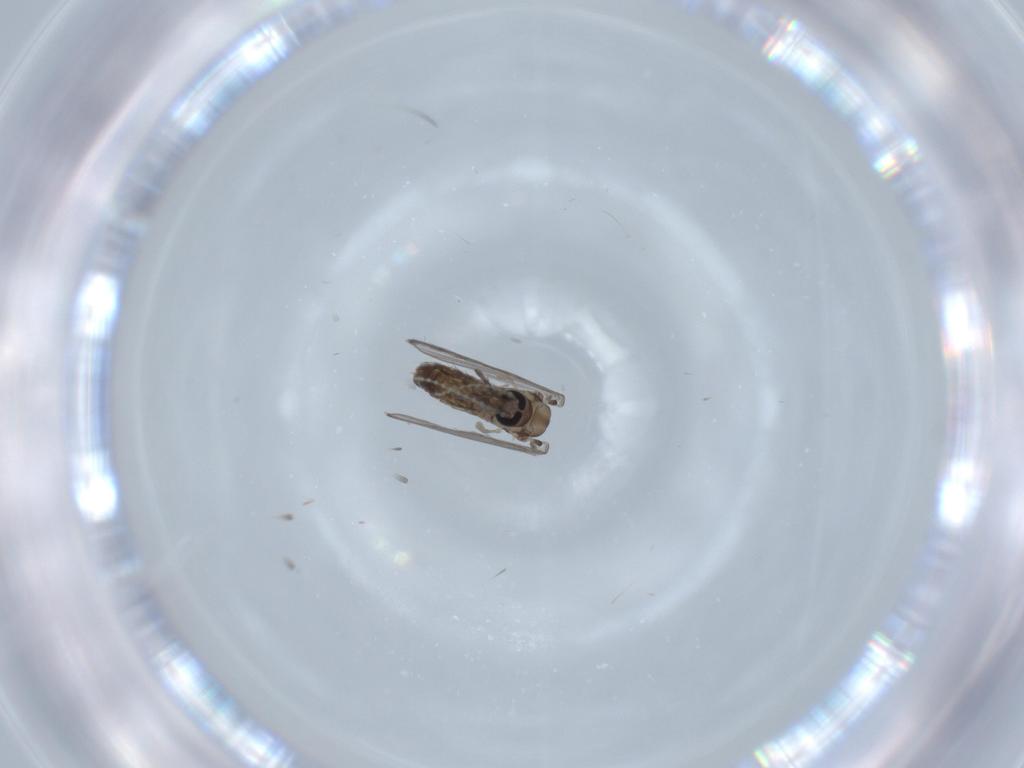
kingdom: Animalia
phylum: Arthropoda
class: Insecta
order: Diptera
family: Psychodidae
